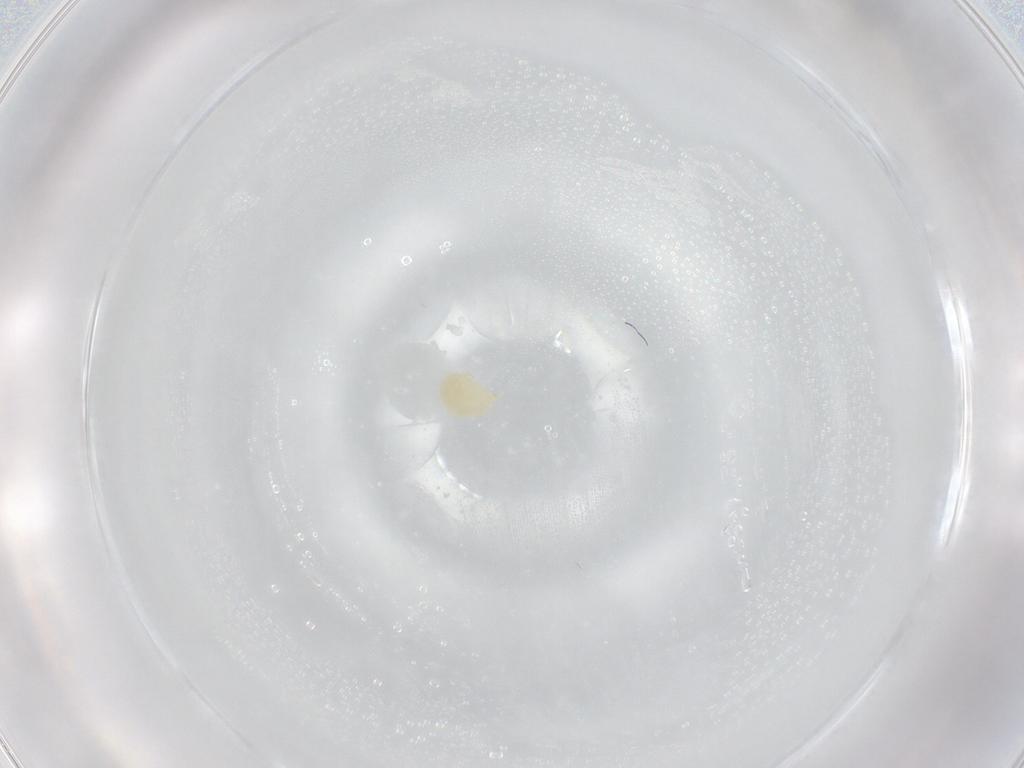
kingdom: Animalia
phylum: Arthropoda
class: Arachnida
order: Trombidiformes
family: Hydryphantidae
